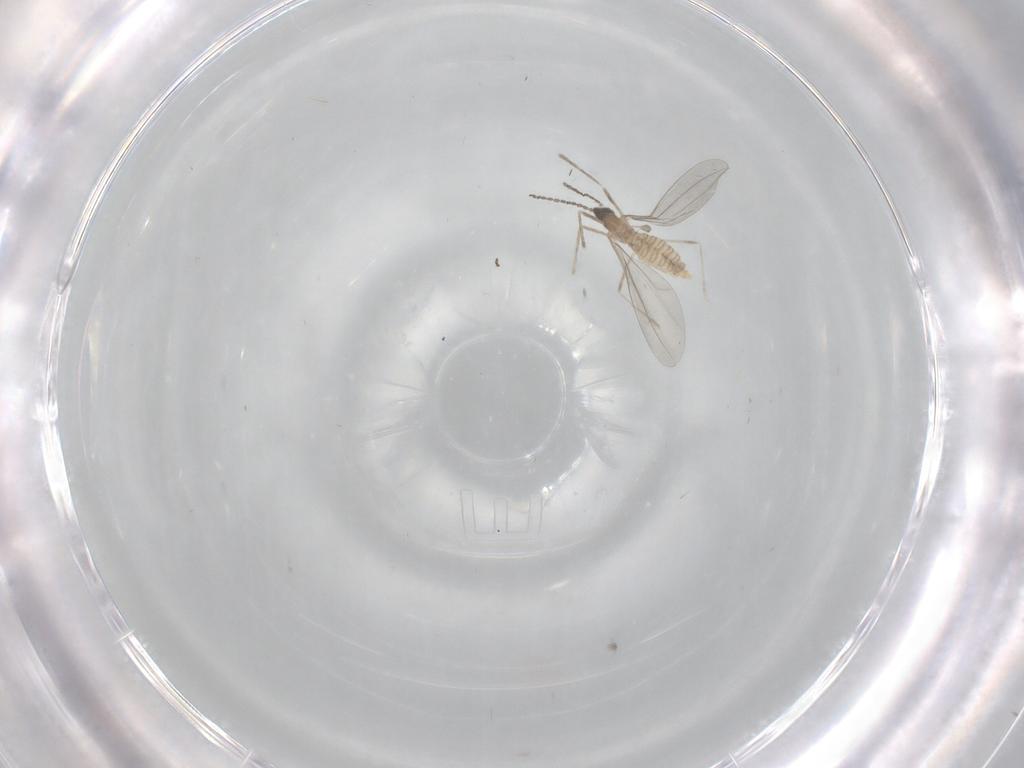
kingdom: Animalia
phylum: Arthropoda
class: Insecta
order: Diptera
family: Cecidomyiidae
